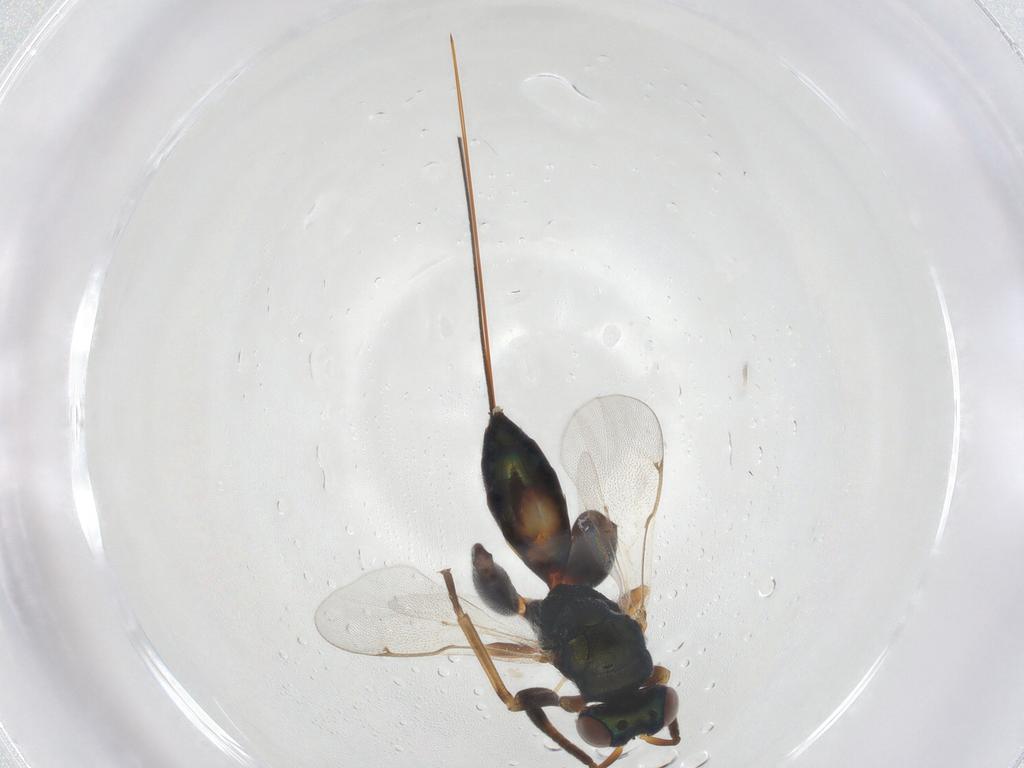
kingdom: Animalia
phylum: Arthropoda
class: Insecta
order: Hymenoptera
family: Torymidae
